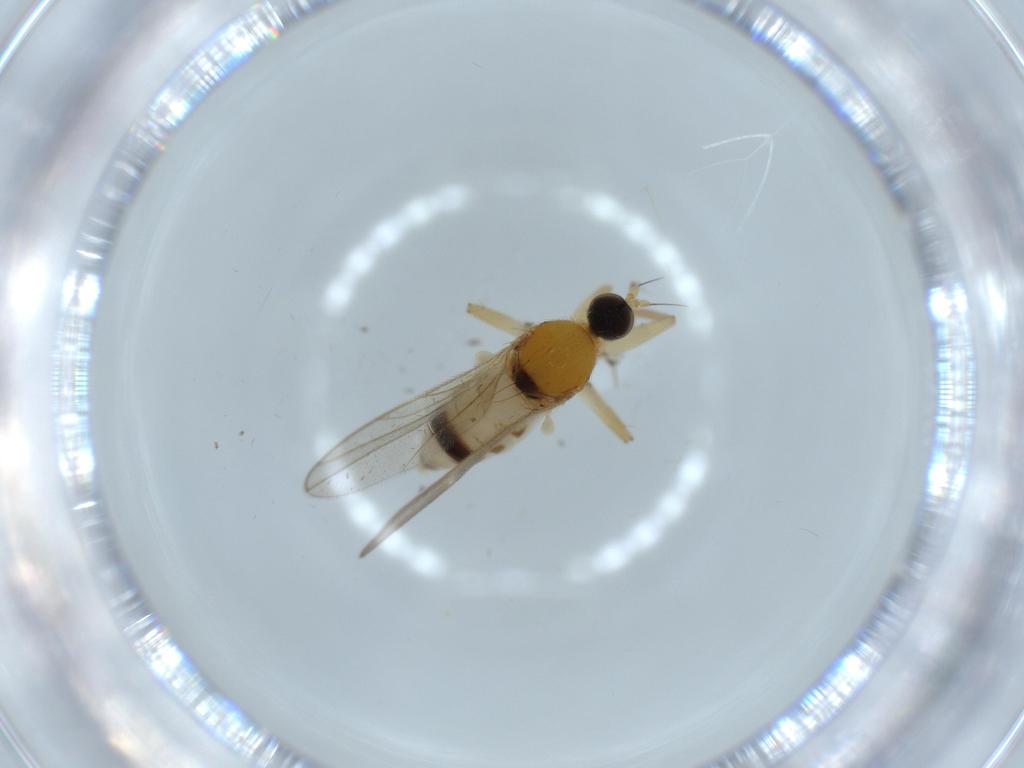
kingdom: Animalia
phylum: Arthropoda
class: Insecta
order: Diptera
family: Hybotidae
